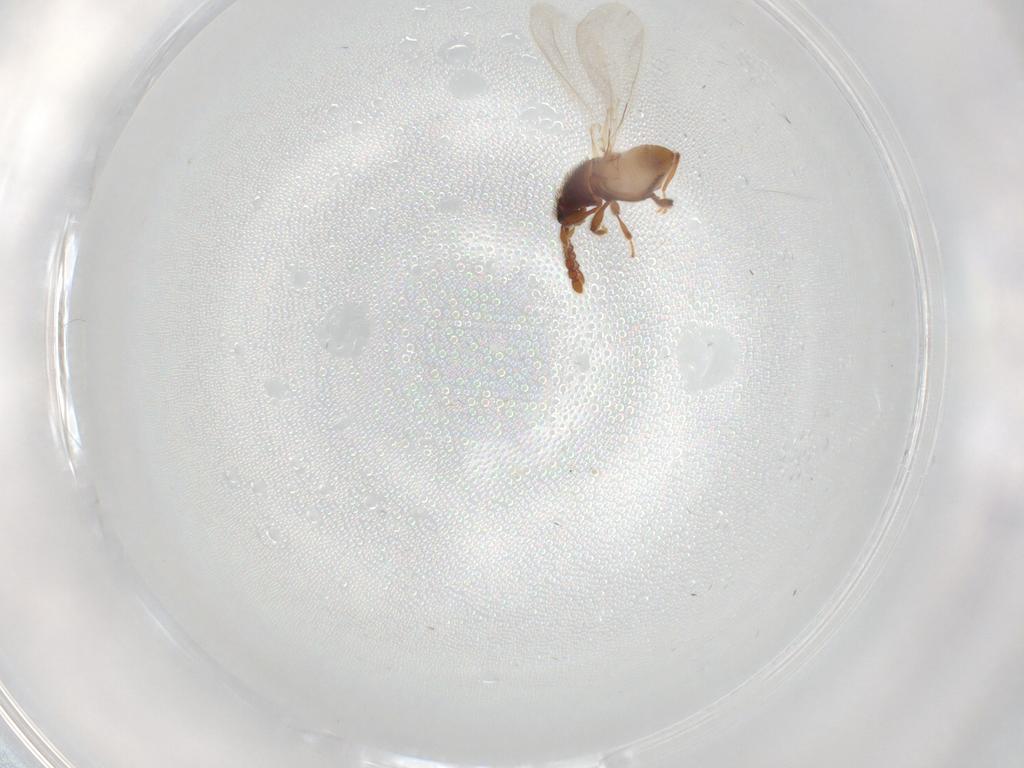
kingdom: Animalia
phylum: Arthropoda
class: Insecta
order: Coleoptera
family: Staphylinidae
